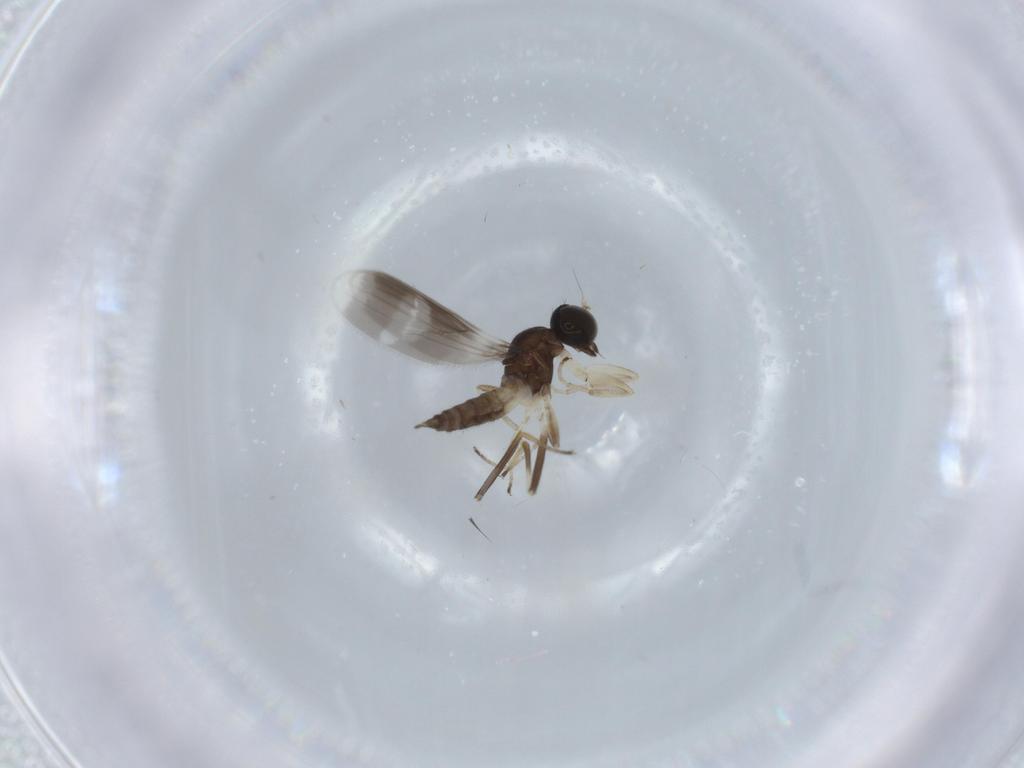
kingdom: Animalia
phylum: Arthropoda
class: Insecta
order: Diptera
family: Hybotidae
